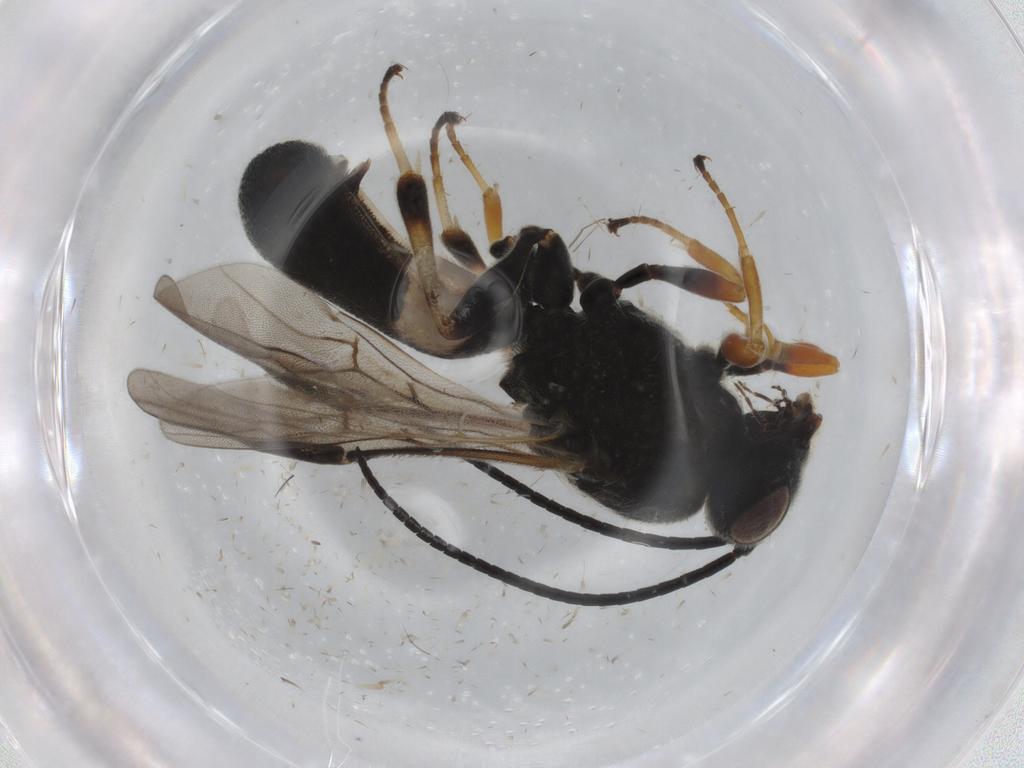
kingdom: Animalia
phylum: Arthropoda
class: Insecta
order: Hymenoptera
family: Braconidae
